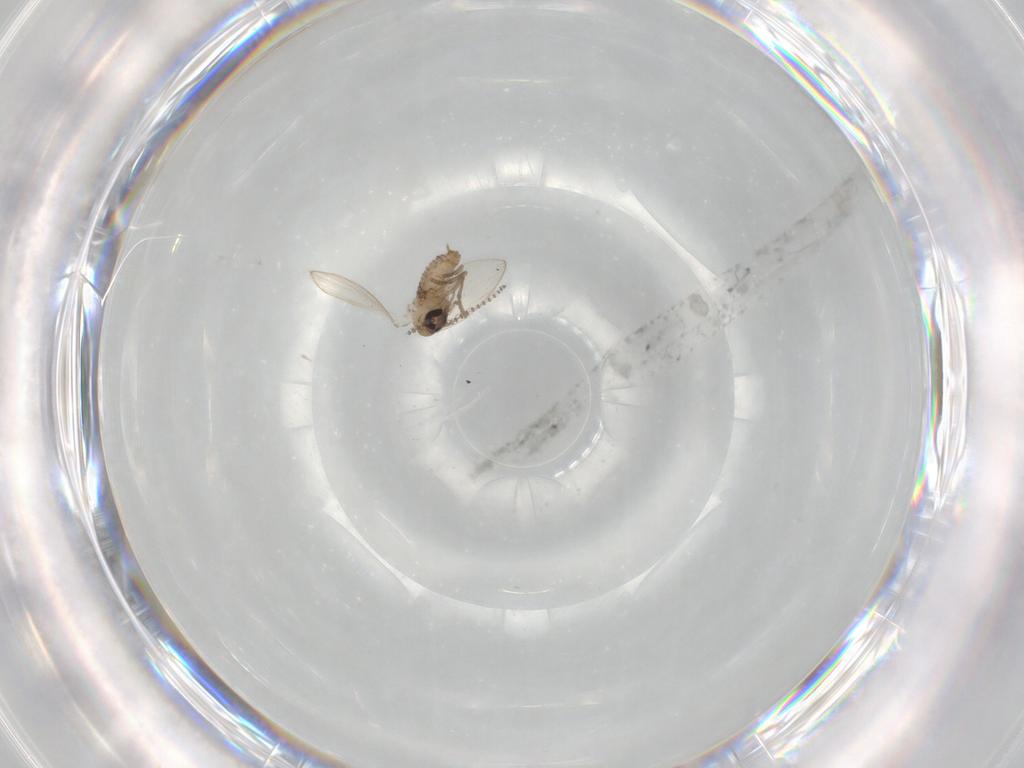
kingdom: Animalia
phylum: Arthropoda
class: Insecta
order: Diptera
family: Psychodidae
